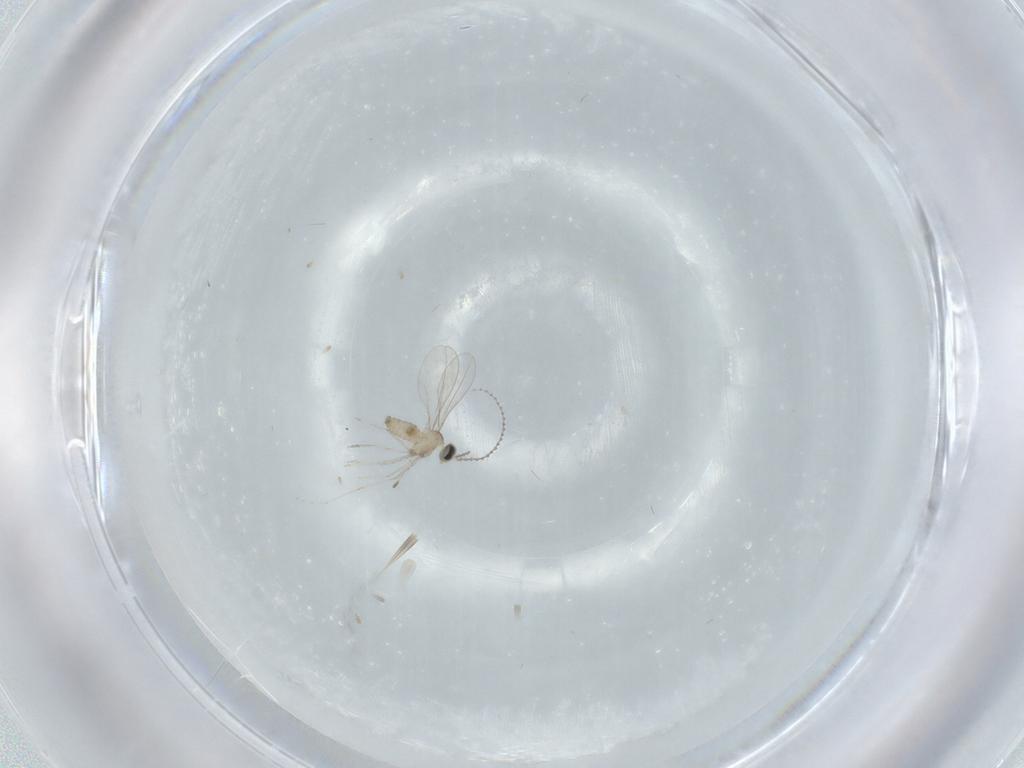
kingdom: Animalia
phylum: Arthropoda
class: Insecta
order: Diptera
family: Cecidomyiidae
